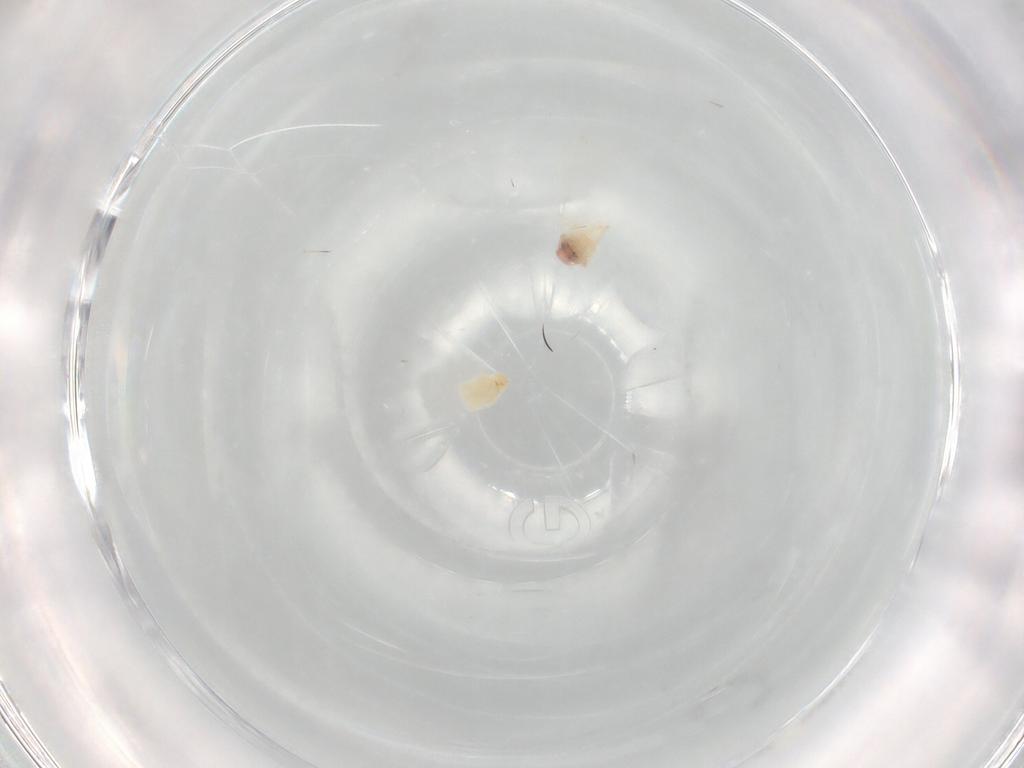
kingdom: Animalia
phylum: Arthropoda
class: Insecta
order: Diptera
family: Dolichopodidae
